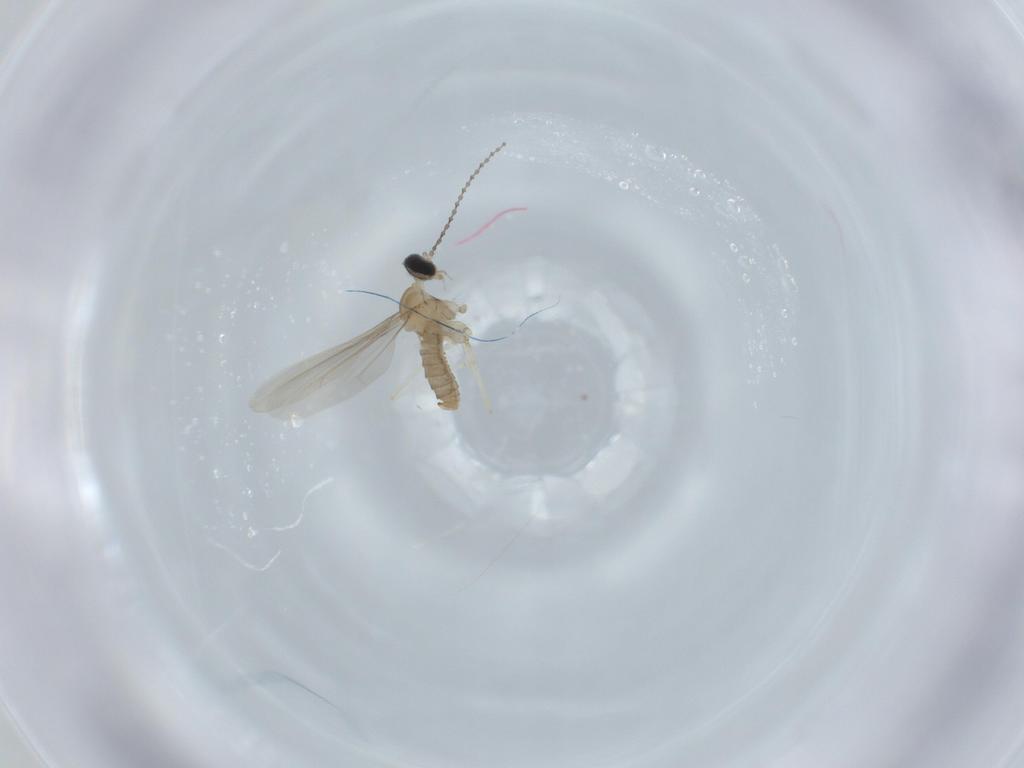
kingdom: Animalia
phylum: Arthropoda
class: Insecta
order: Diptera
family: Cecidomyiidae
